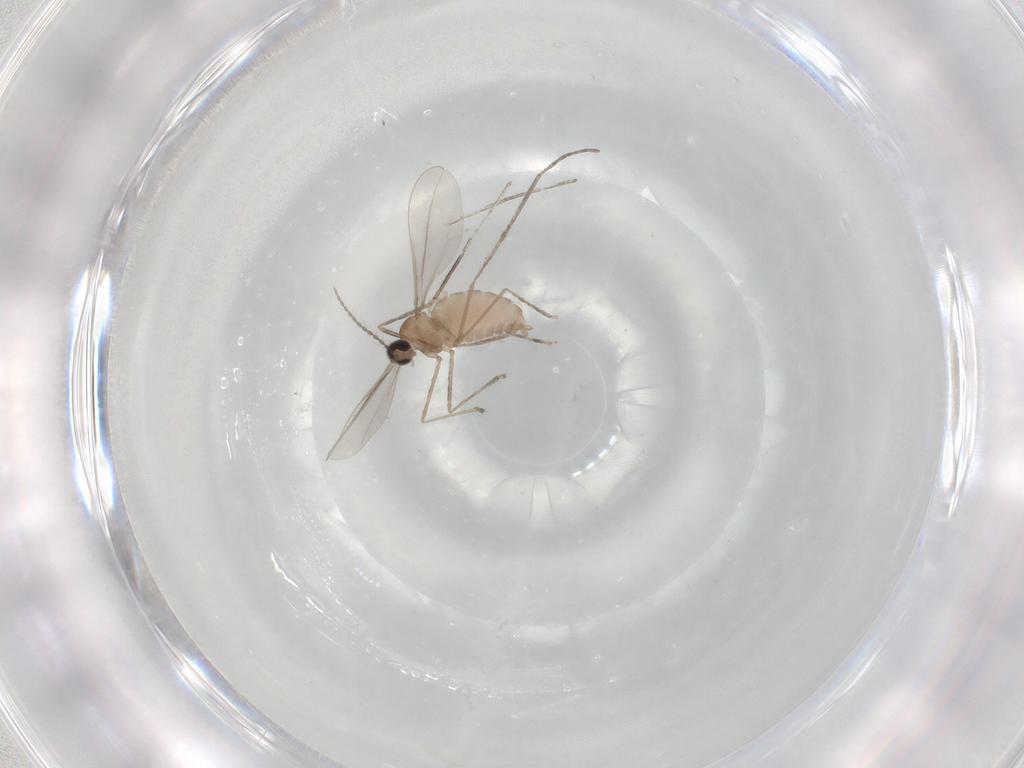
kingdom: Animalia
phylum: Arthropoda
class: Insecta
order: Diptera
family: Cecidomyiidae
